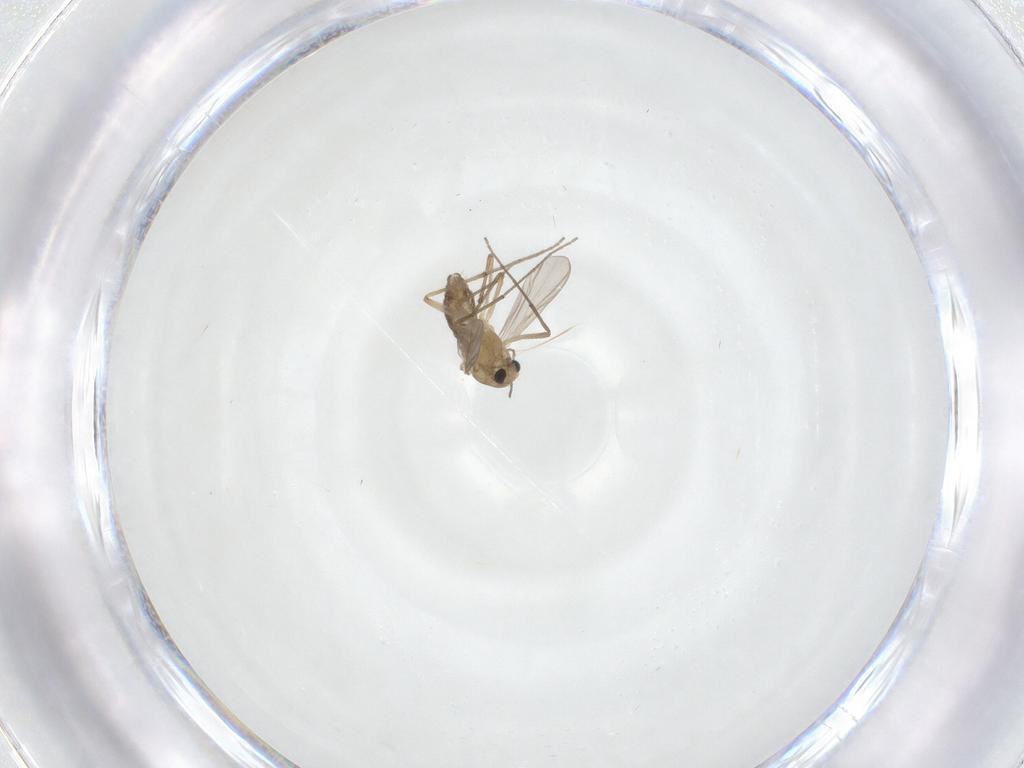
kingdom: Animalia
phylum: Arthropoda
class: Insecta
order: Diptera
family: Chironomidae
